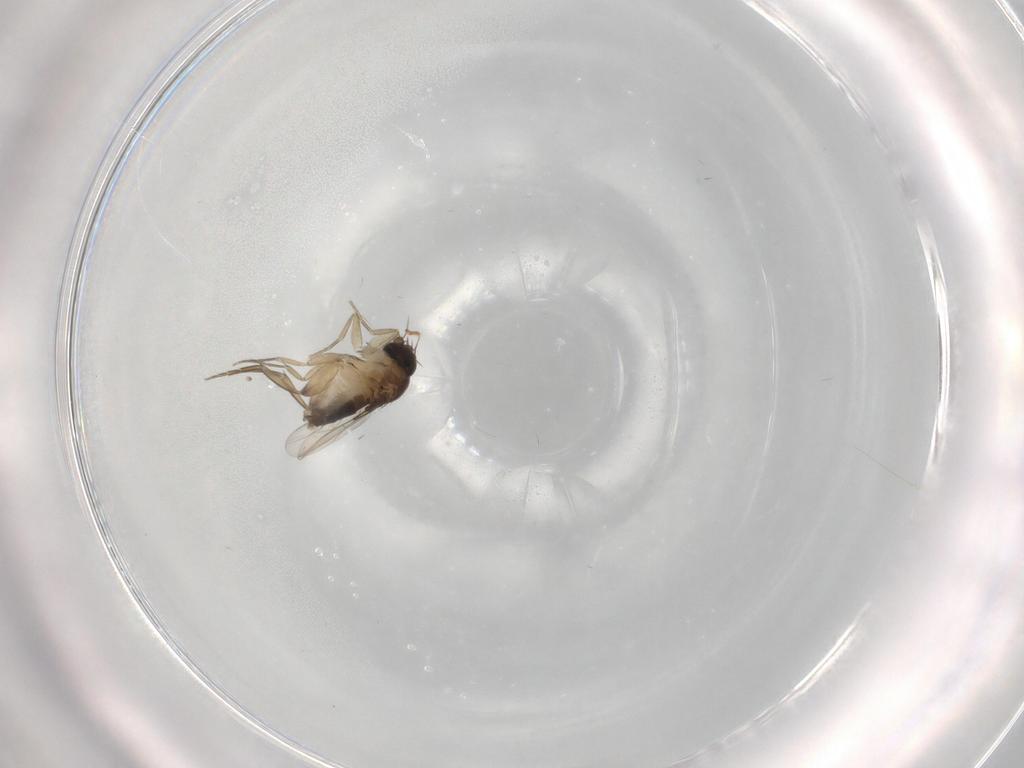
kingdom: Animalia
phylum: Arthropoda
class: Insecta
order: Diptera
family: Phoridae
